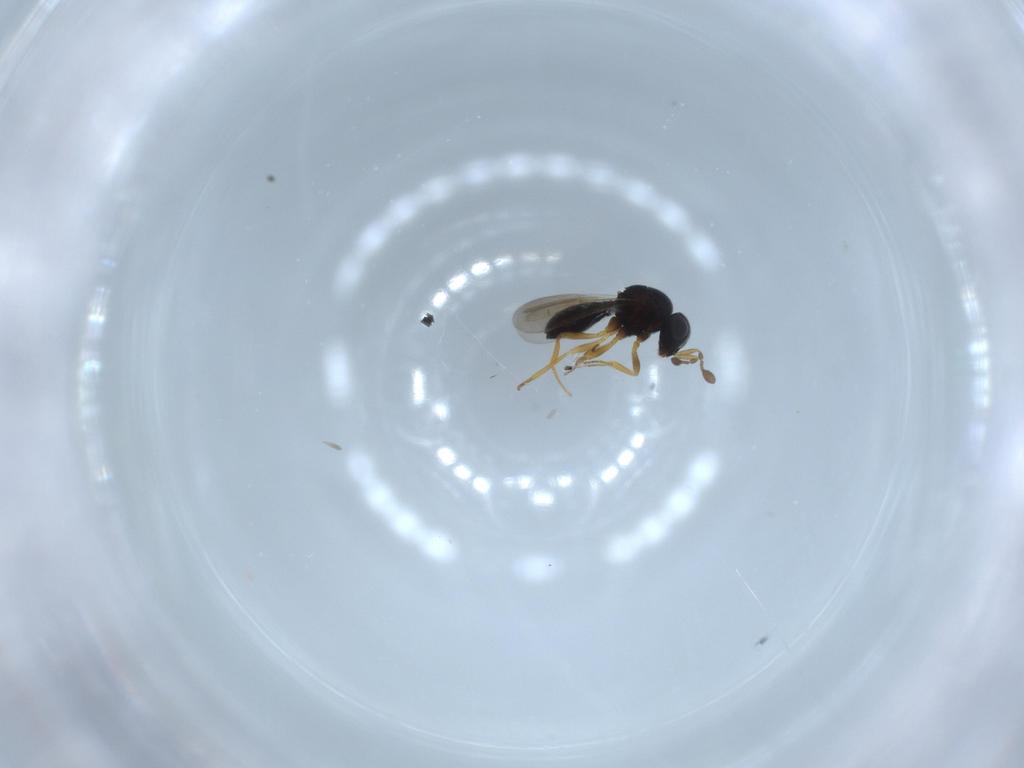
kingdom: Animalia
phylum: Arthropoda
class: Insecta
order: Hymenoptera
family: Scelionidae
